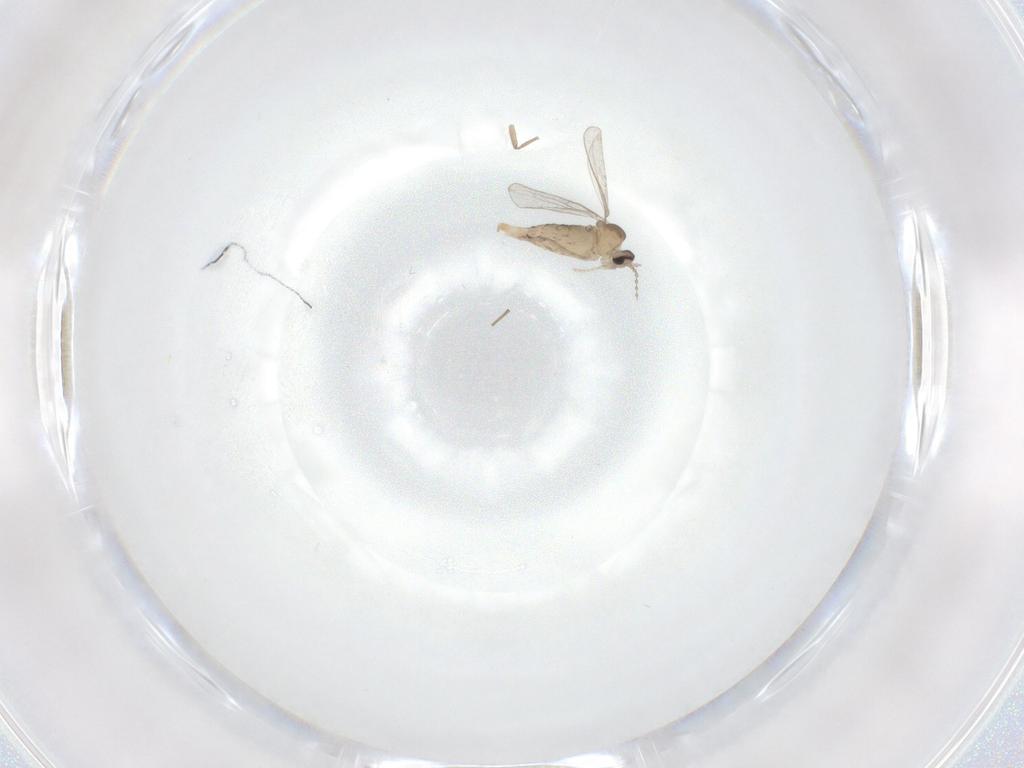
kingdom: Animalia
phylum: Arthropoda
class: Insecta
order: Diptera
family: Cecidomyiidae
